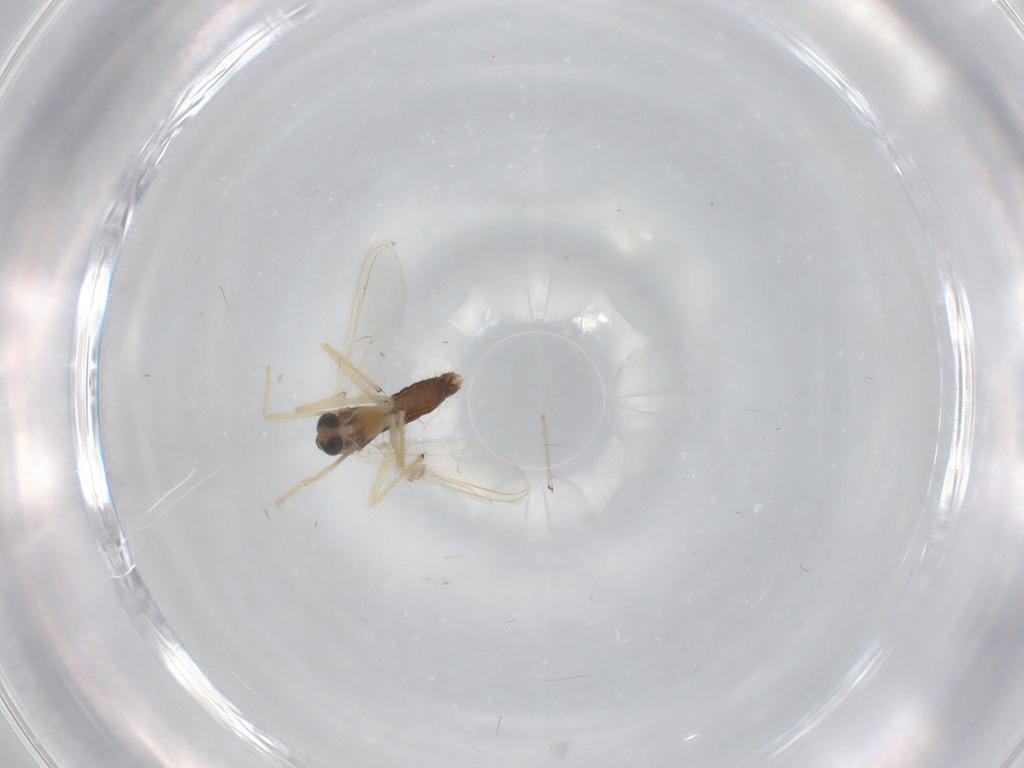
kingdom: Animalia
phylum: Arthropoda
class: Insecta
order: Diptera
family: Chironomidae
